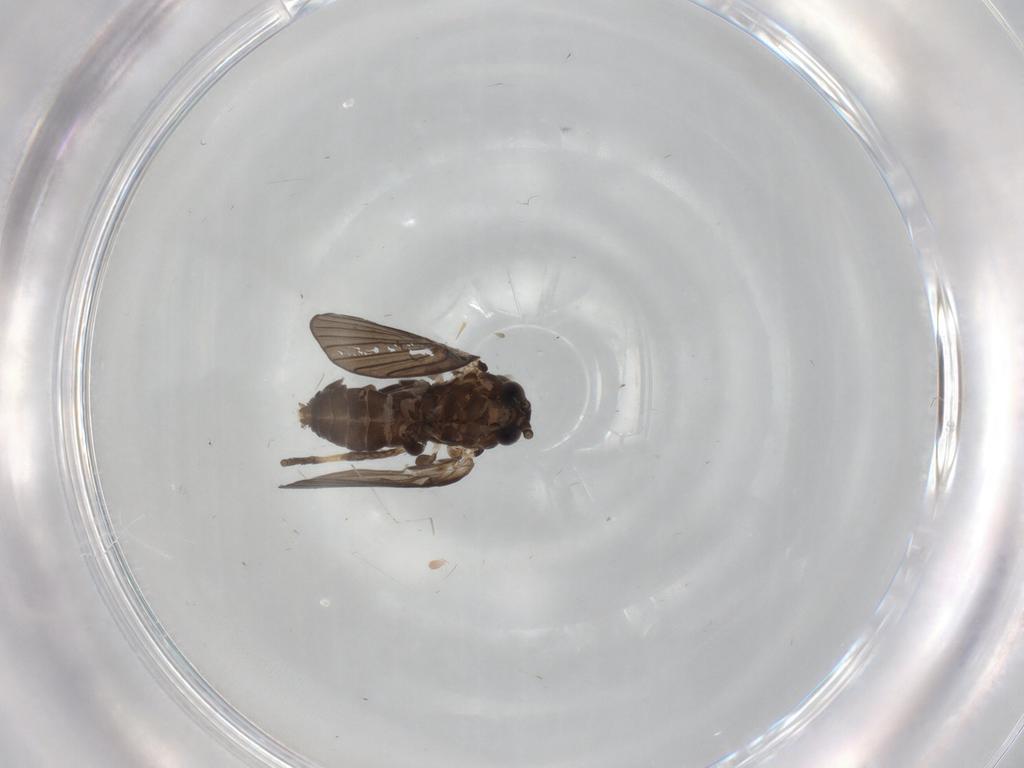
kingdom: Animalia
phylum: Arthropoda
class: Insecta
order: Diptera
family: Psychodidae
